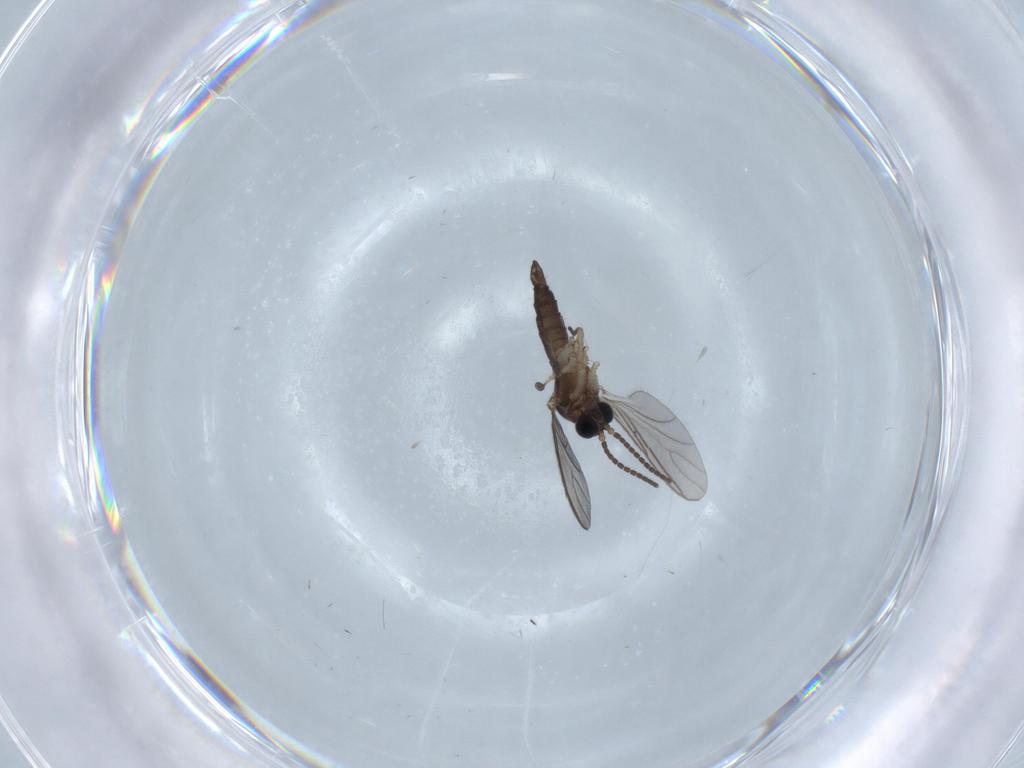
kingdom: Animalia
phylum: Arthropoda
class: Insecta
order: Diptera
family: Sciaridae
